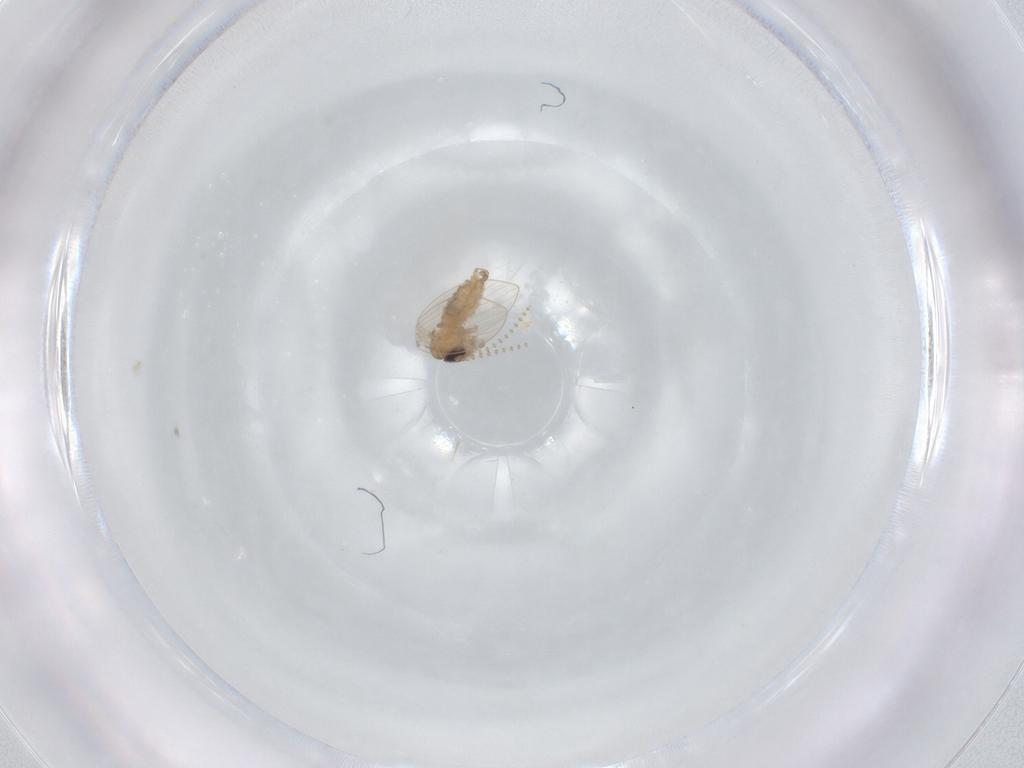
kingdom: Animalia
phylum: Arthropoda
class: Insecta
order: Diptera
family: Psychodidae
